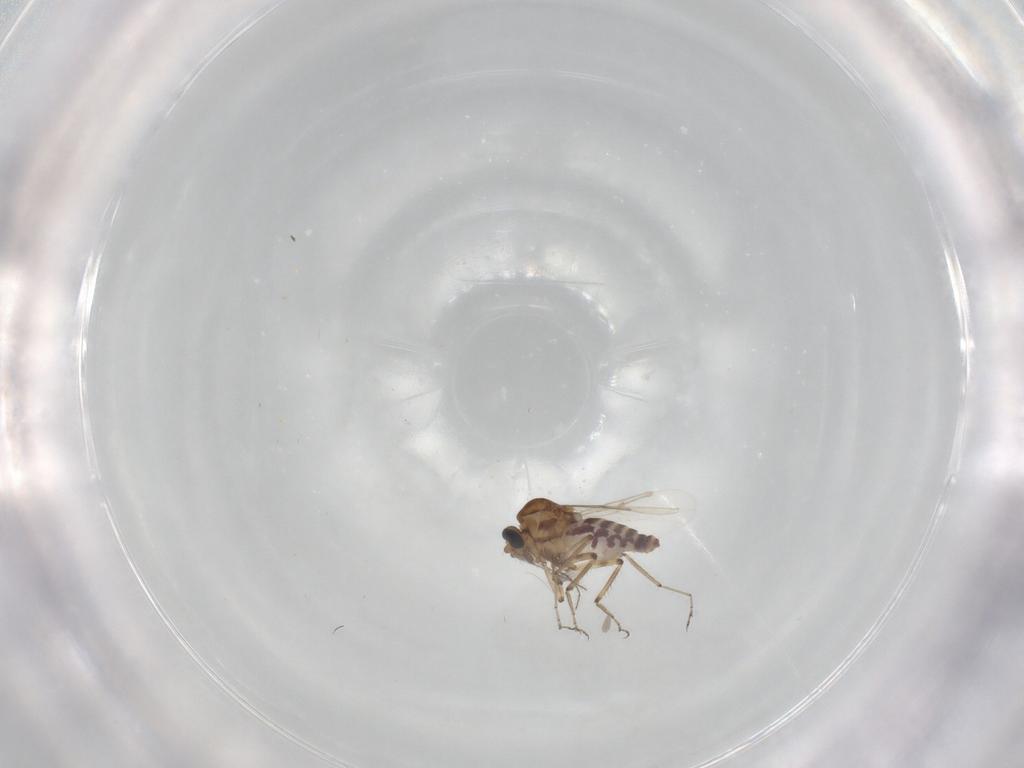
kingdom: Animalia
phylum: Arthropoda
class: Insecta
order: Diptera
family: Ceratopogonidae
